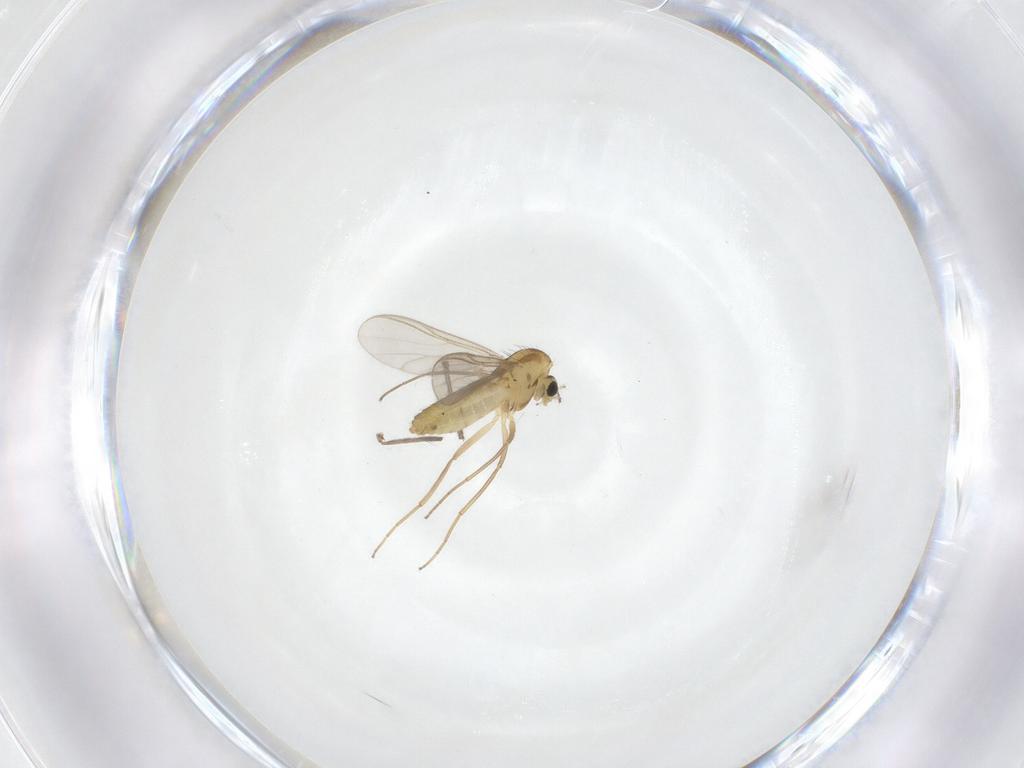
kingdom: Animalia
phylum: Arthropoda
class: Insecta
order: Diptera
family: Chironomidae
